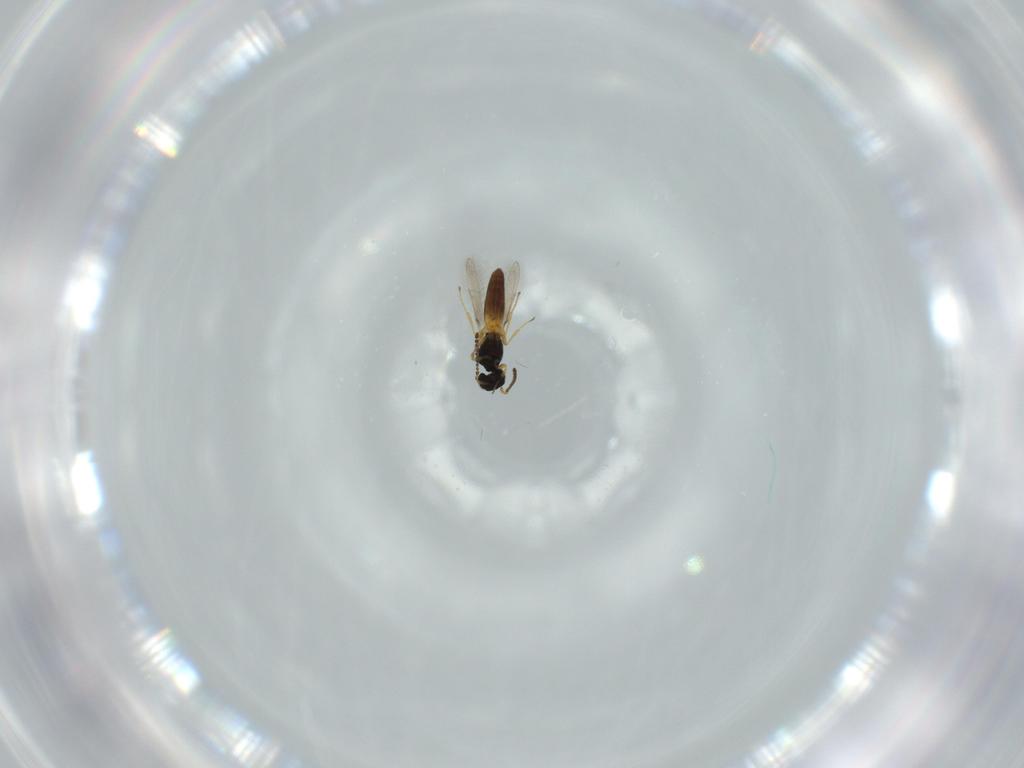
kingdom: Animalia
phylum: Arthropoda
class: Insecta
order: Hymenoptera
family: Scelionidae
